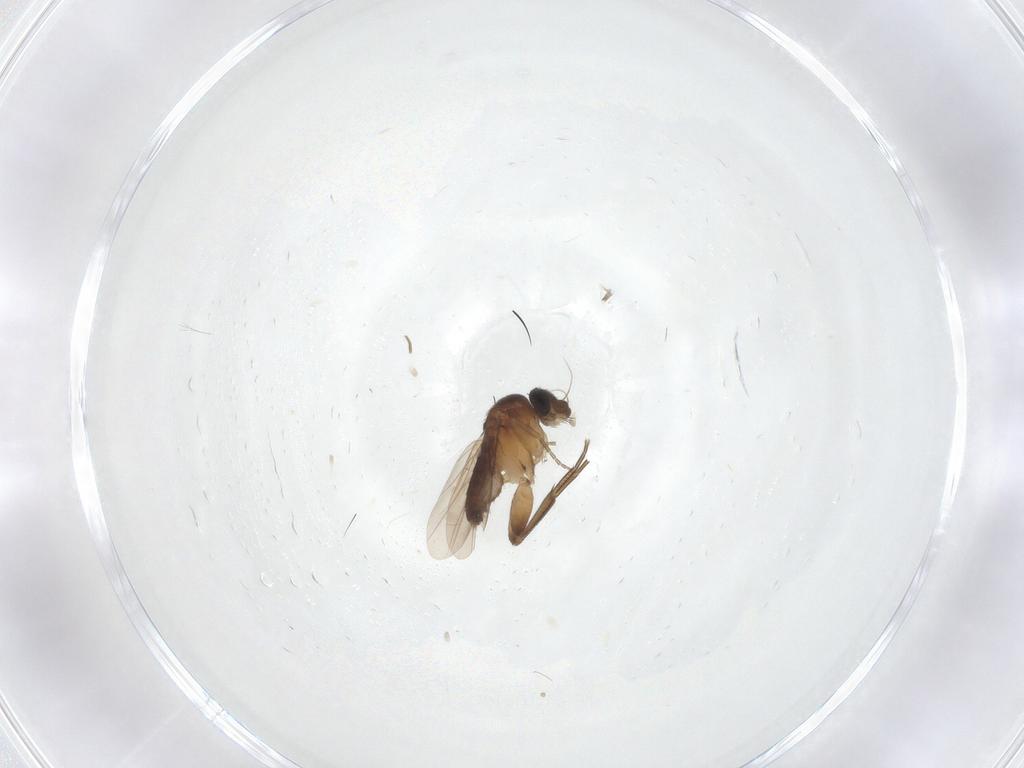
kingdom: Animalia
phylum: Arthropoda
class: Insecta
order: Diptera
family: Phoridae
